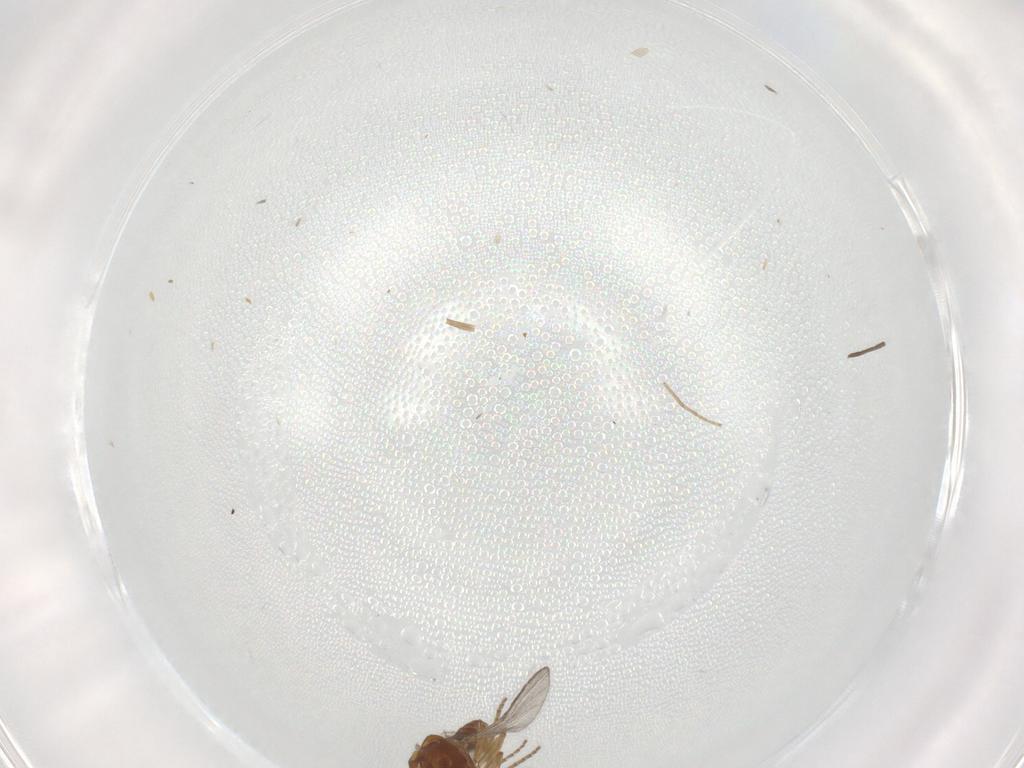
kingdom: Animalia
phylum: Arthropoda
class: Insecta
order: Diptera
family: Ceratopogonidae
